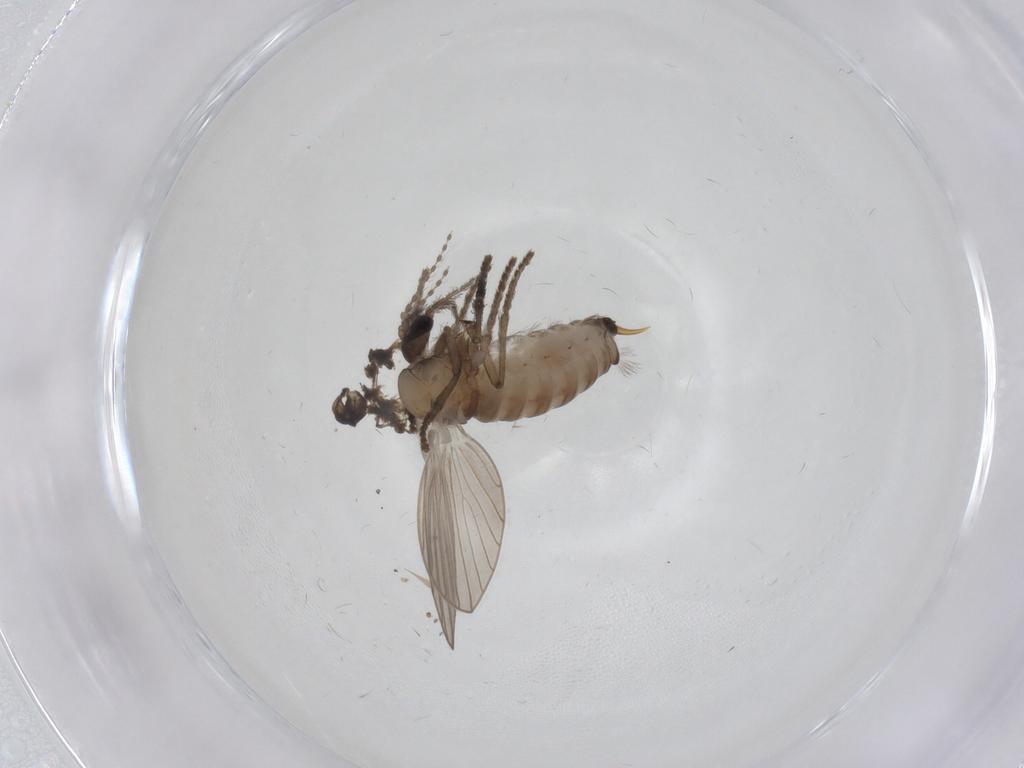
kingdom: Animalia
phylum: Arthropoda
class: Insecta
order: Diptera
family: Psychodidae
